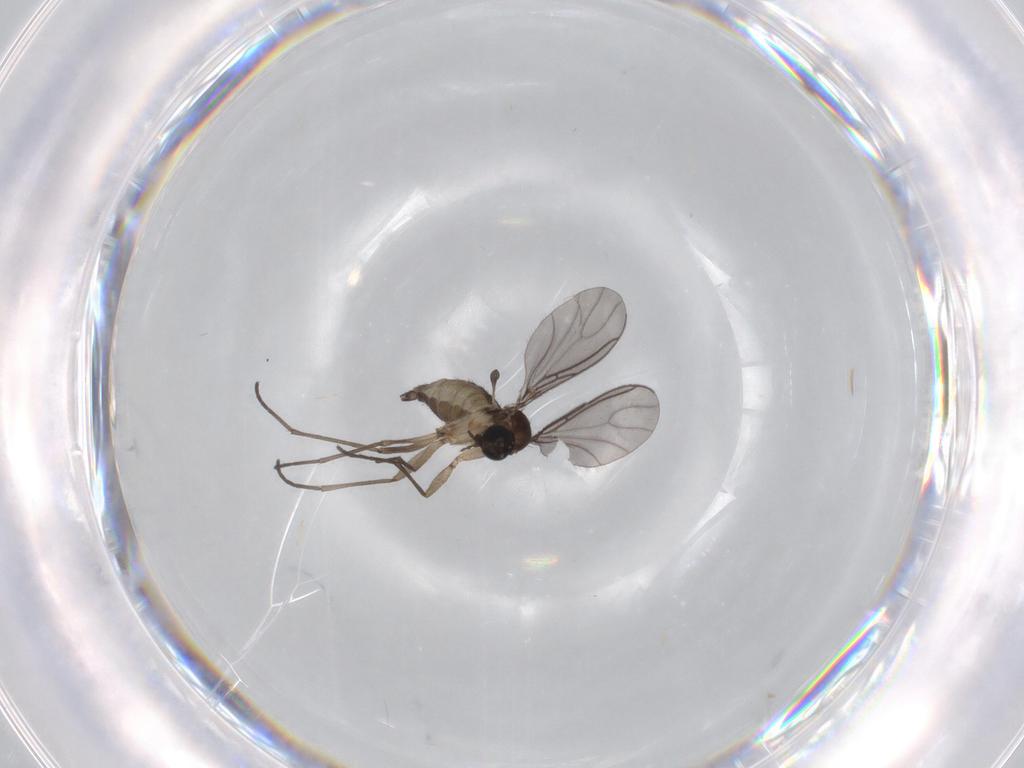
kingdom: Animalia
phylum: Arthropoda
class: Insecta
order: Diptera
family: Sciaridae
